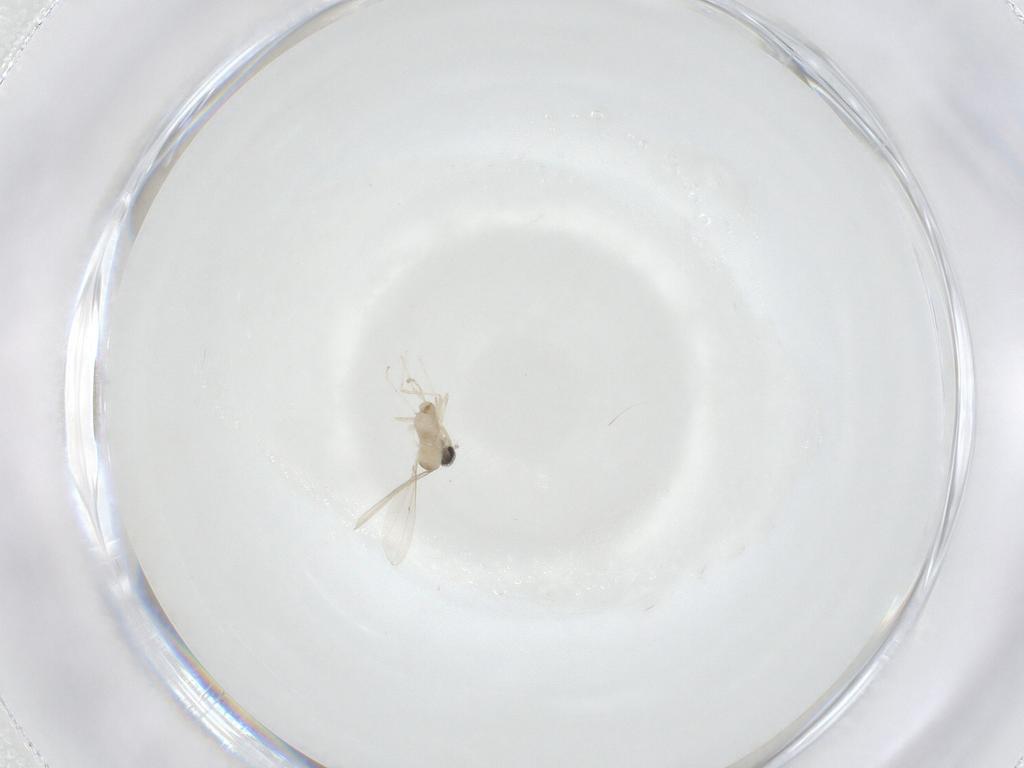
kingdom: Animalia
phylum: Arthropoda
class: Insecta
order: Diptera
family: Cecidomyiidae
